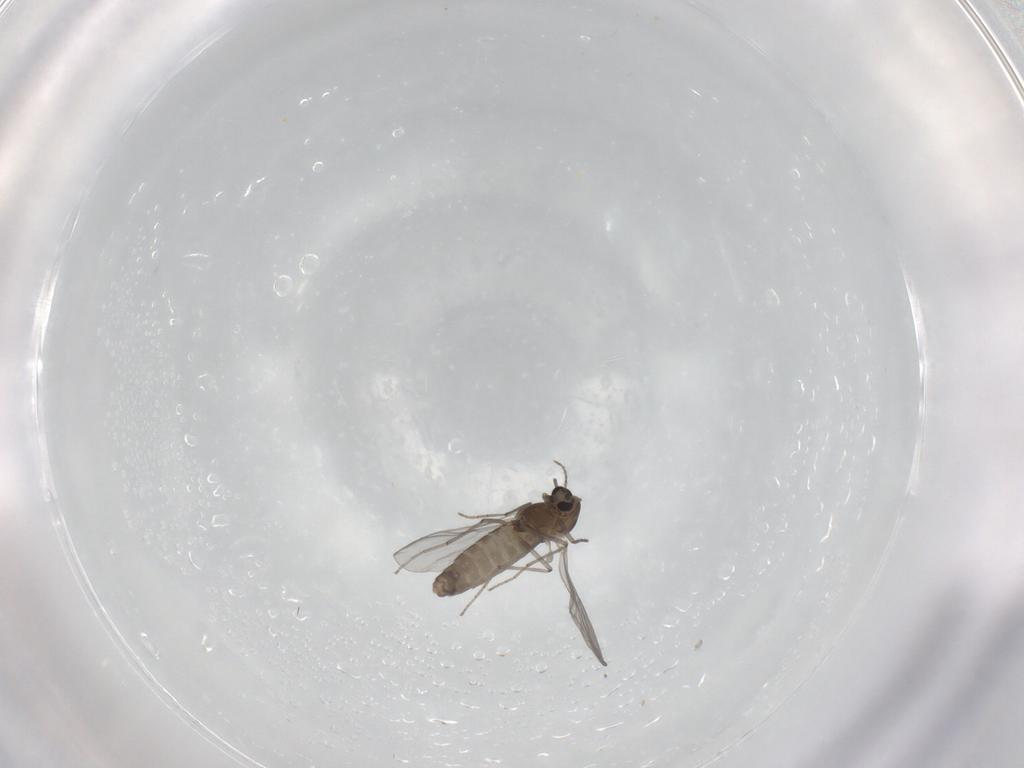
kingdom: Animalia
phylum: Arthropoda
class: Insecta
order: Diptera
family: Chironomidae
